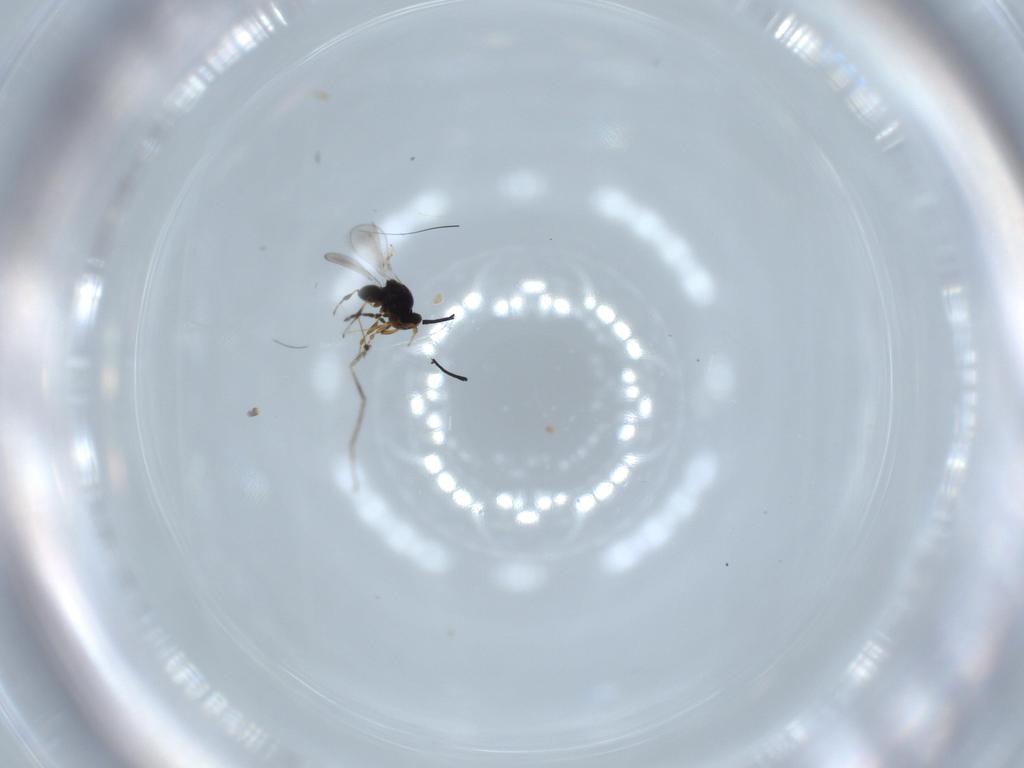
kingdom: Animalia
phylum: Arthropoda
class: Insecta
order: Hymenoptera
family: Platygastridae
